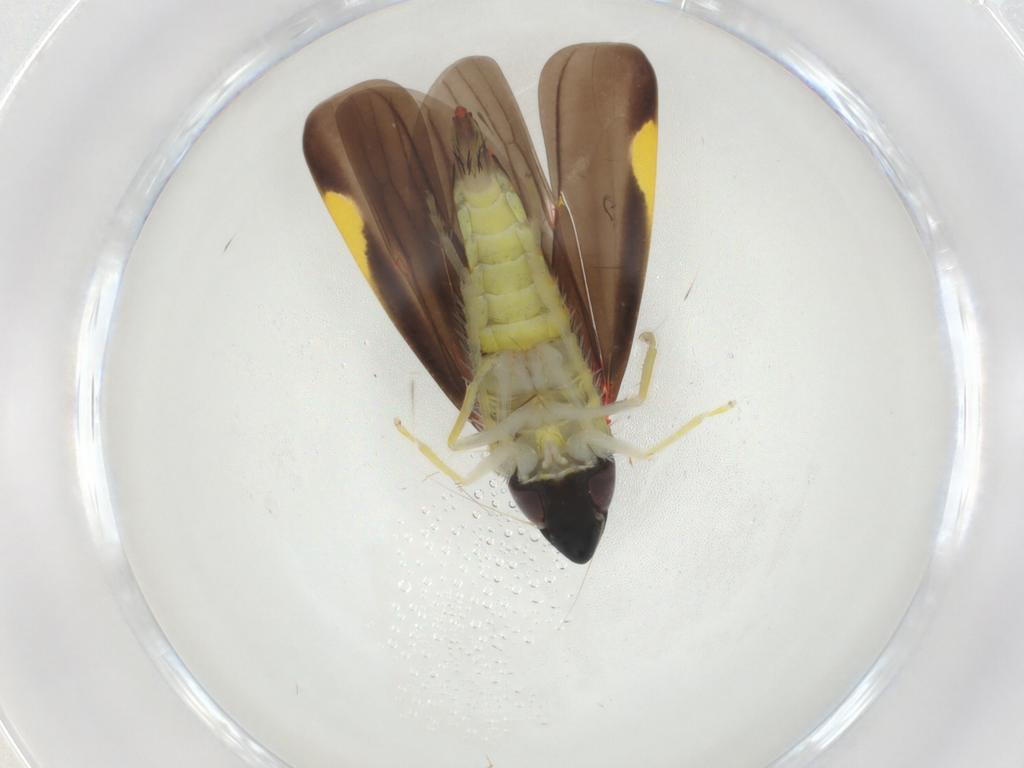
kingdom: Animalia
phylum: Arthropoda
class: Insecta
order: Hemiptera
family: Cicadellidae
